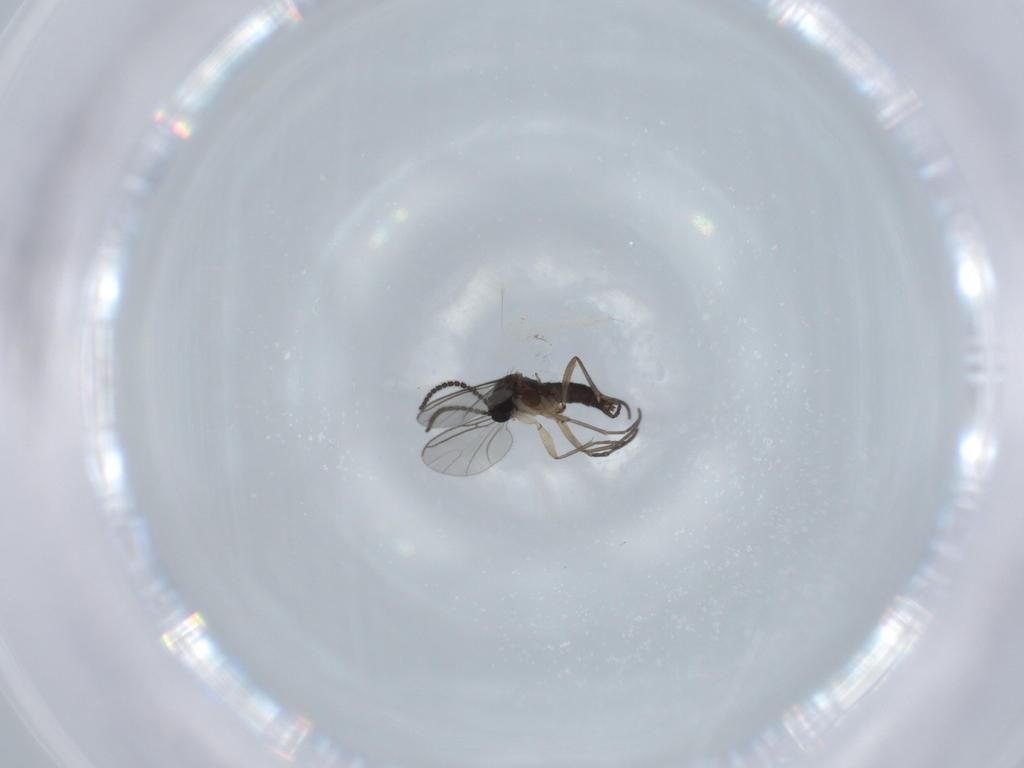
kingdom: Animalia
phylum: Arthropoda
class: Insecta
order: Diptera
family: Sciaridae
